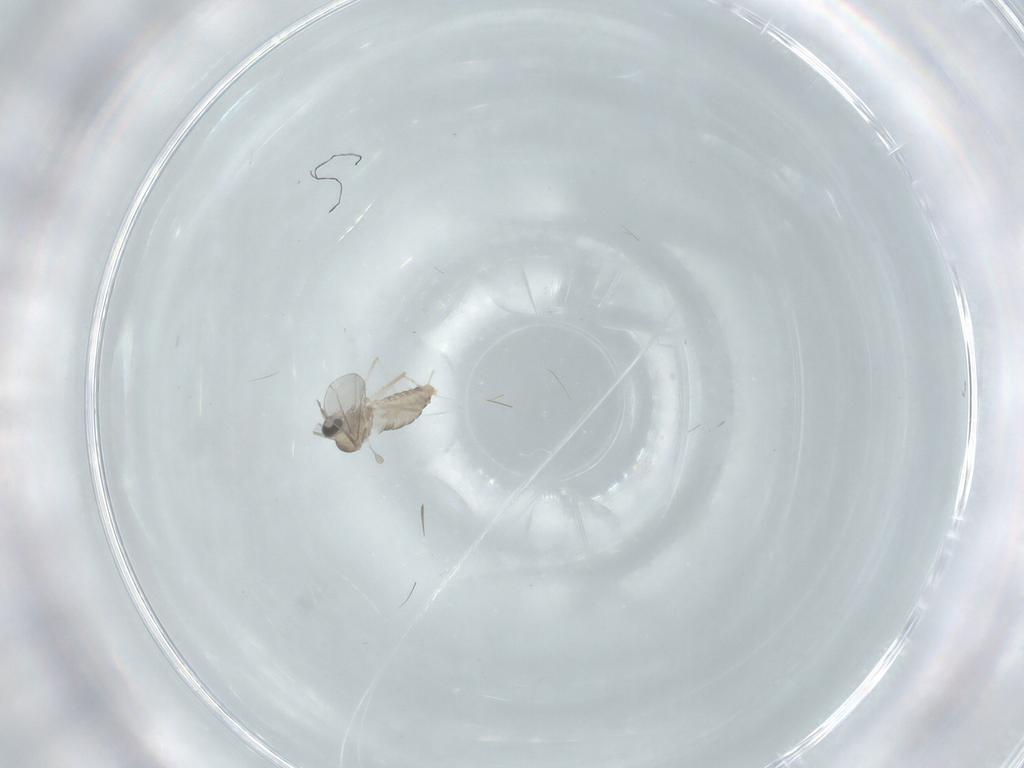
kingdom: Animalia
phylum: Arthropoda
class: Insecta
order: Diptera
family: Cecidomyiidae
